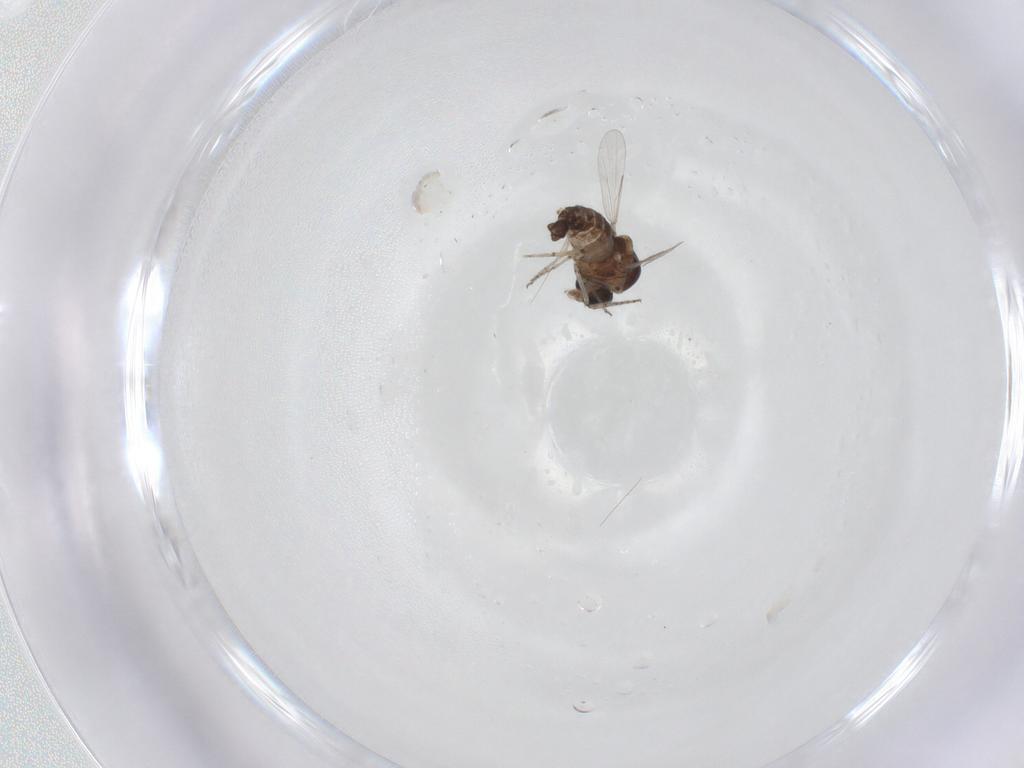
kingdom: Animalia
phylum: Arthropoda
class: Insecta
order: Diptera
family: Ceratopogonidae
